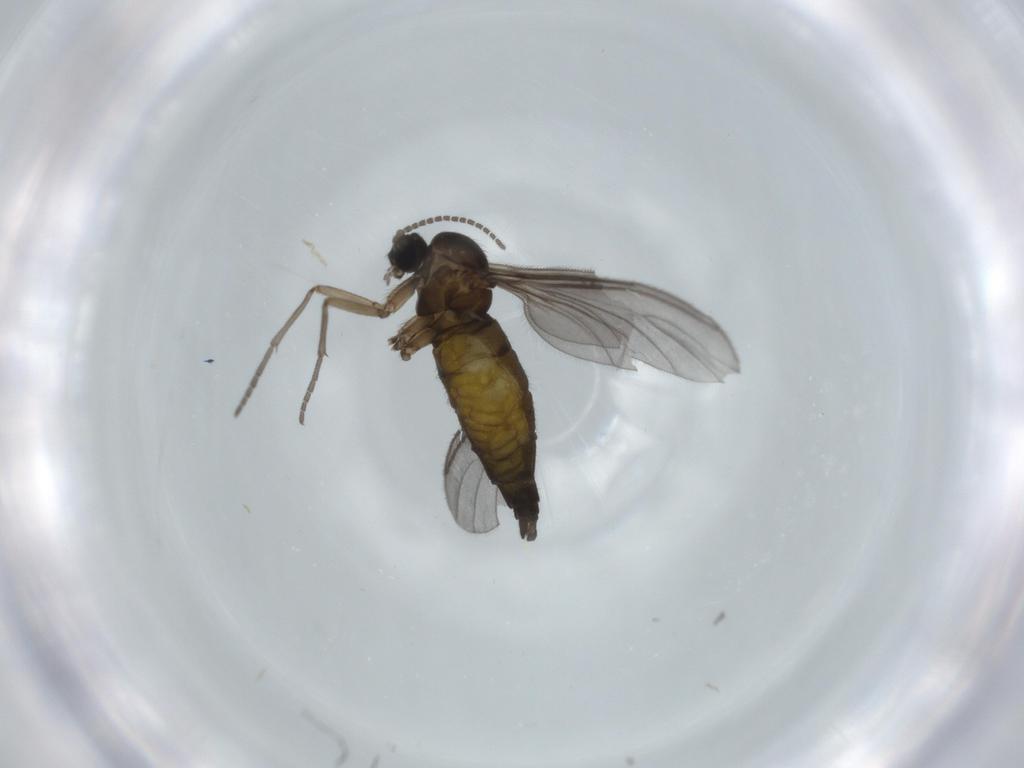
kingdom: Animalia
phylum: Arthropoda
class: Insecta
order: Diptera
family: Sciaridae
